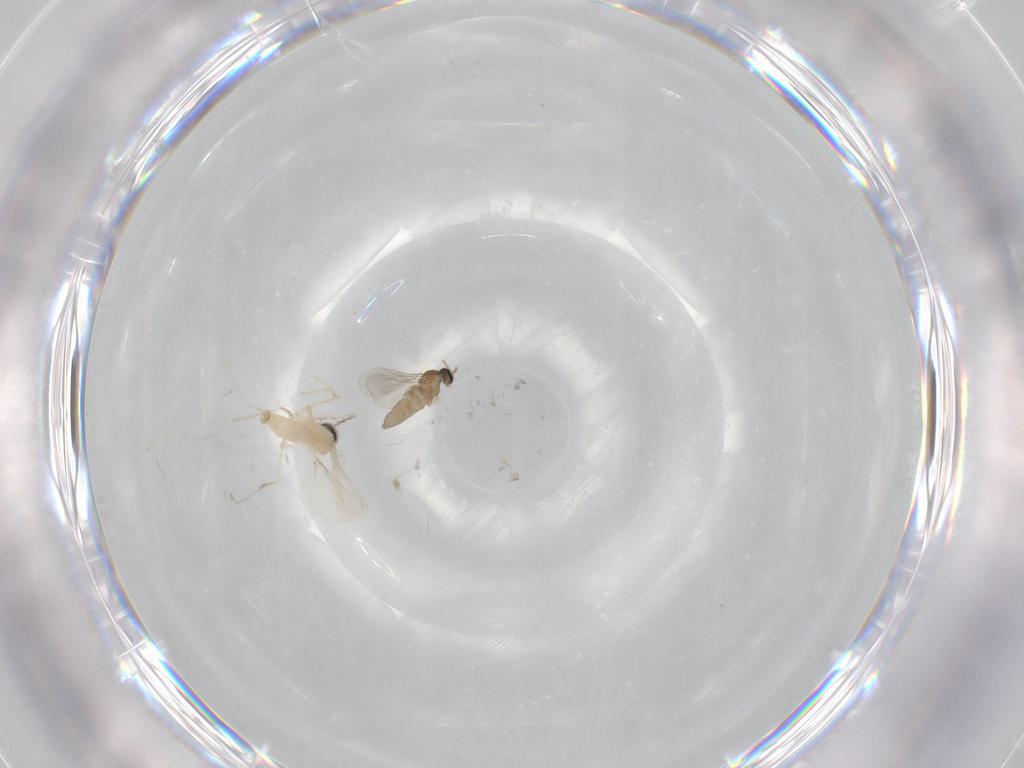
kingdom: Animalia
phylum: Arthropoda
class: Insecta
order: Diptera
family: Cecidomyiidae
